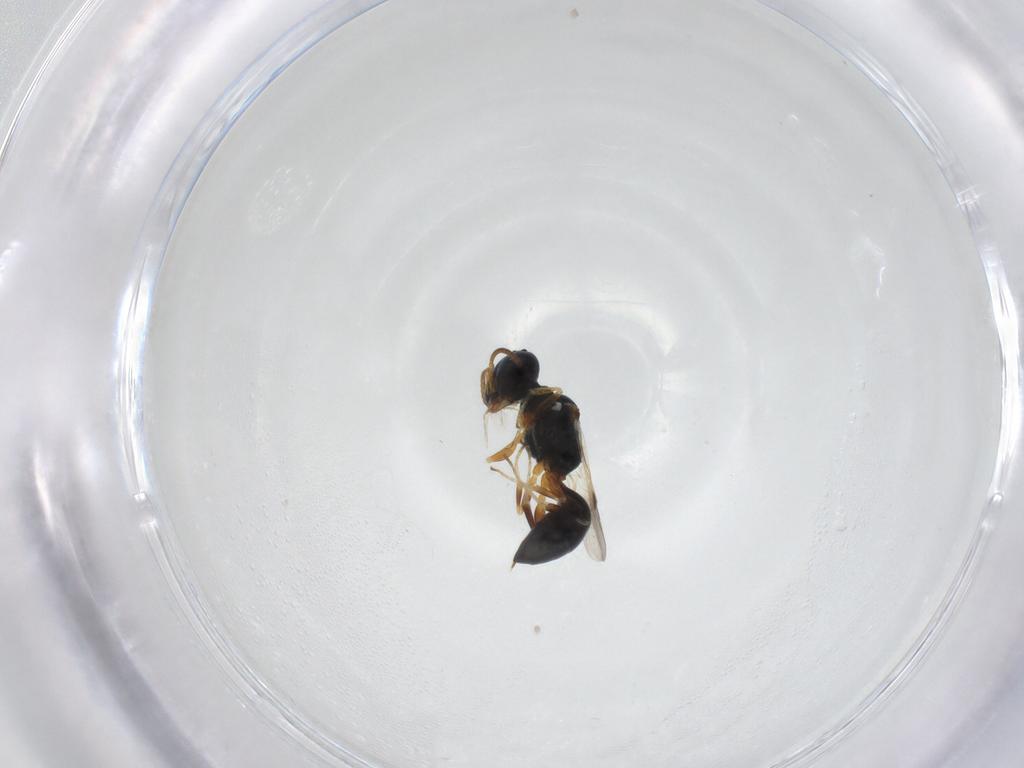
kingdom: Animalia
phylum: Arthropoda
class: Insecta
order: Hymenoptera
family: Pemphredonidae
